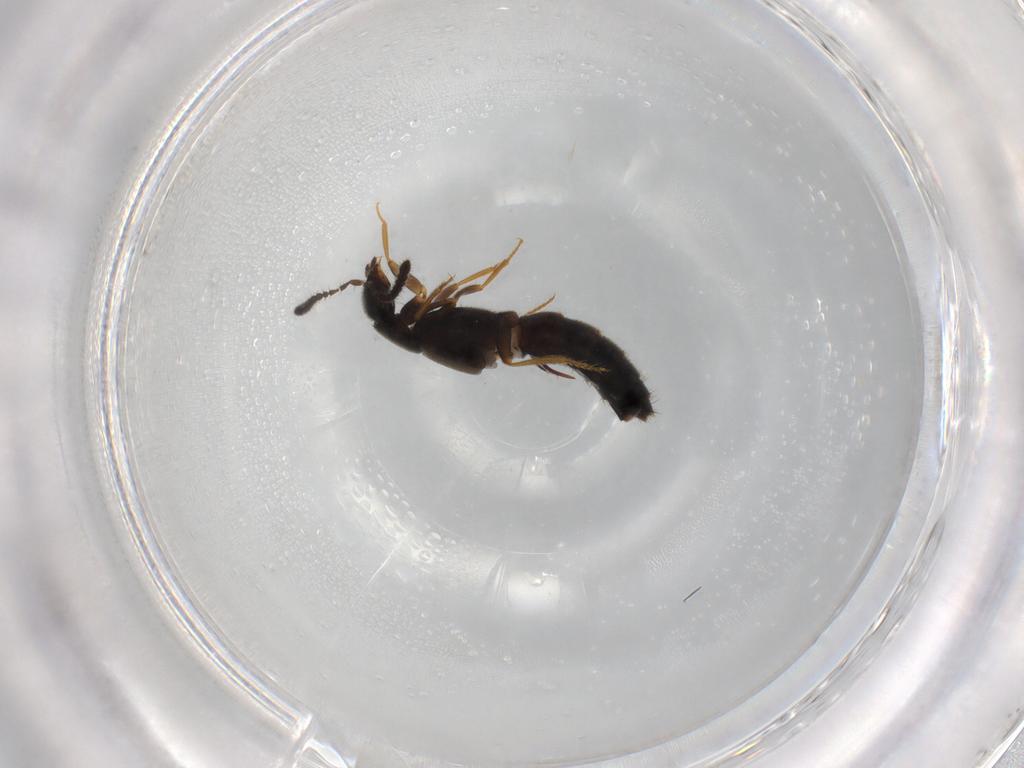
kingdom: Animalia
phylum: Arthropoda
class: Insecta
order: Coleoptera
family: Staphylinidae
